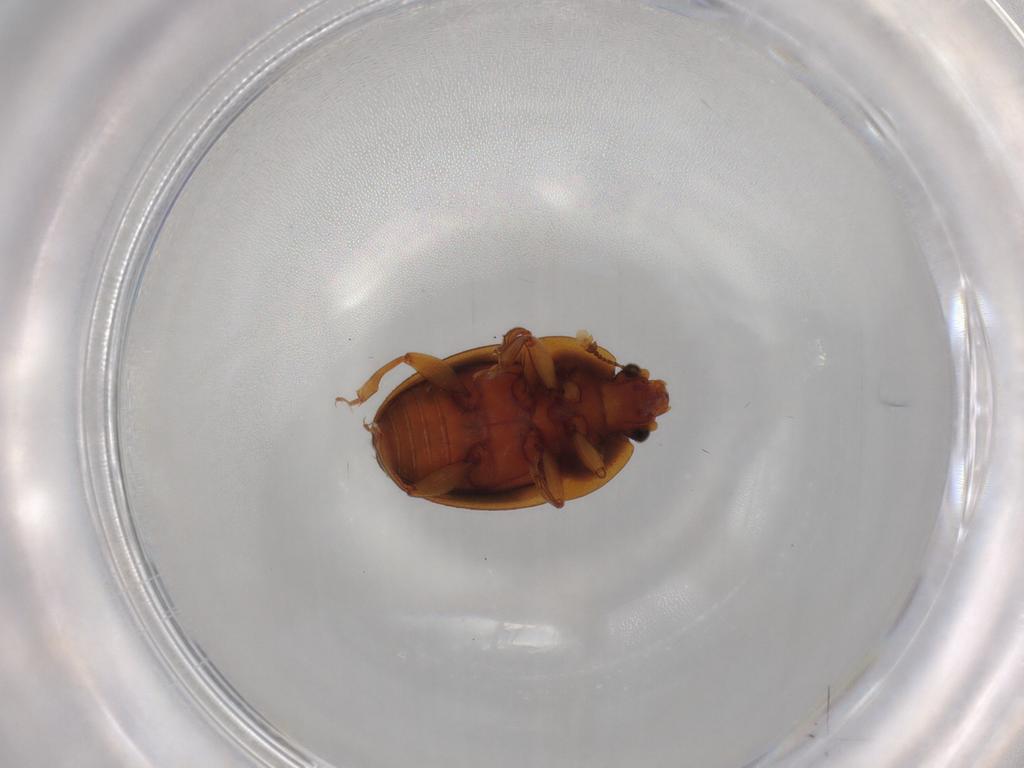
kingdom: Animalia
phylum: Arthropoda
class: Insecta
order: Coleoptera
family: Nitidulidae
